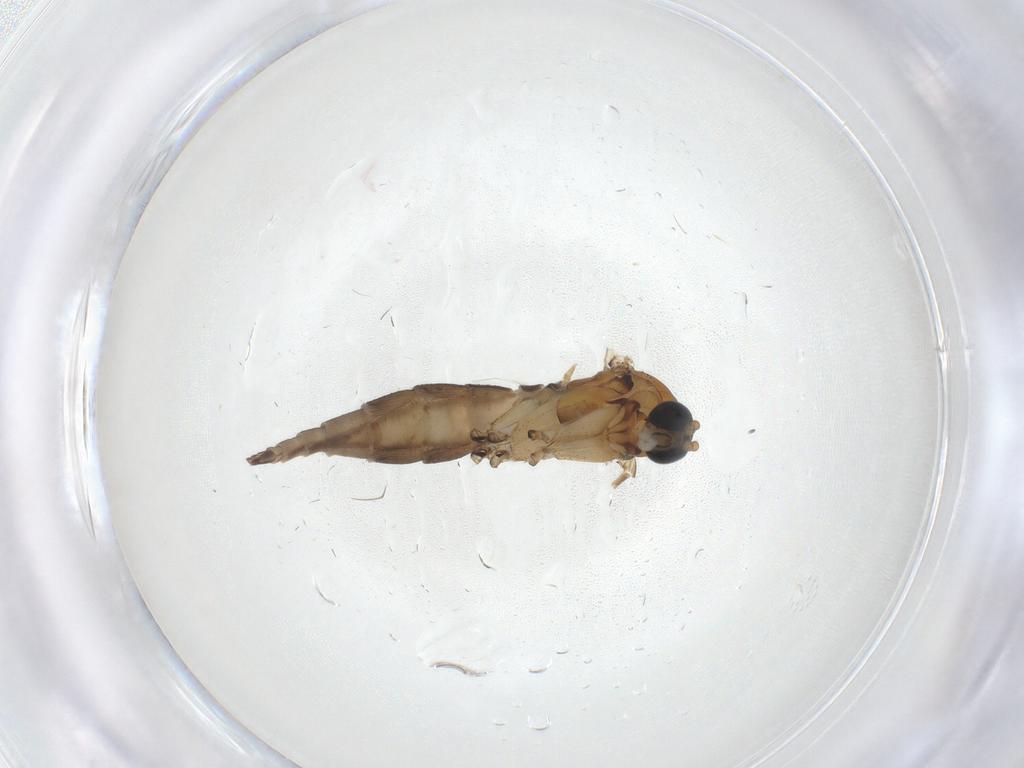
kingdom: Animalia
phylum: Arthropoda
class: Insecta
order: Diptera
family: Sciaridae
